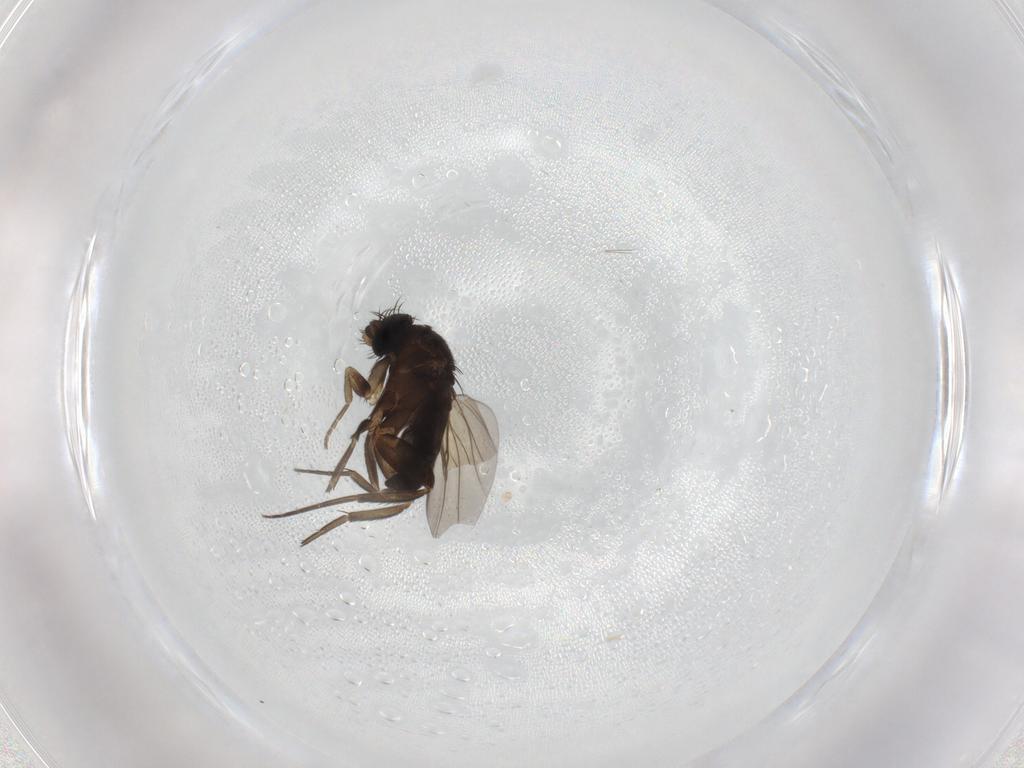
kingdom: Animalia
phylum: Arthropoda
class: Insecta
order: Diptera
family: Phoridae
